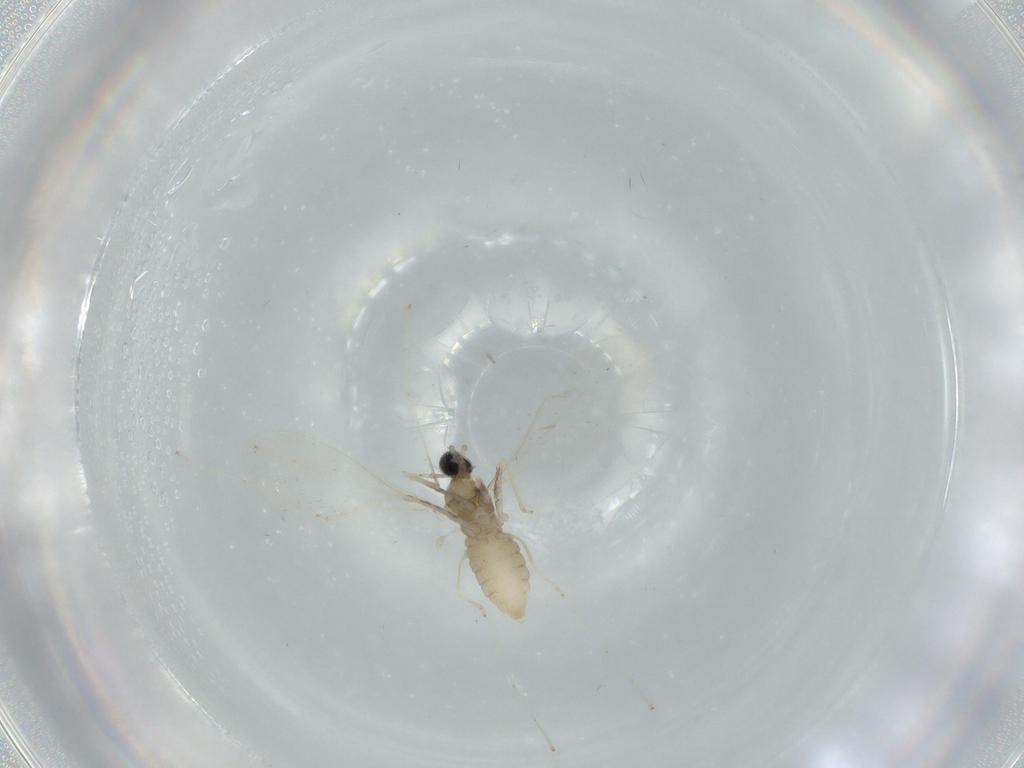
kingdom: Animalia
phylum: Arthropoda
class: Insecta
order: Diptera
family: Cecidomyiidae
